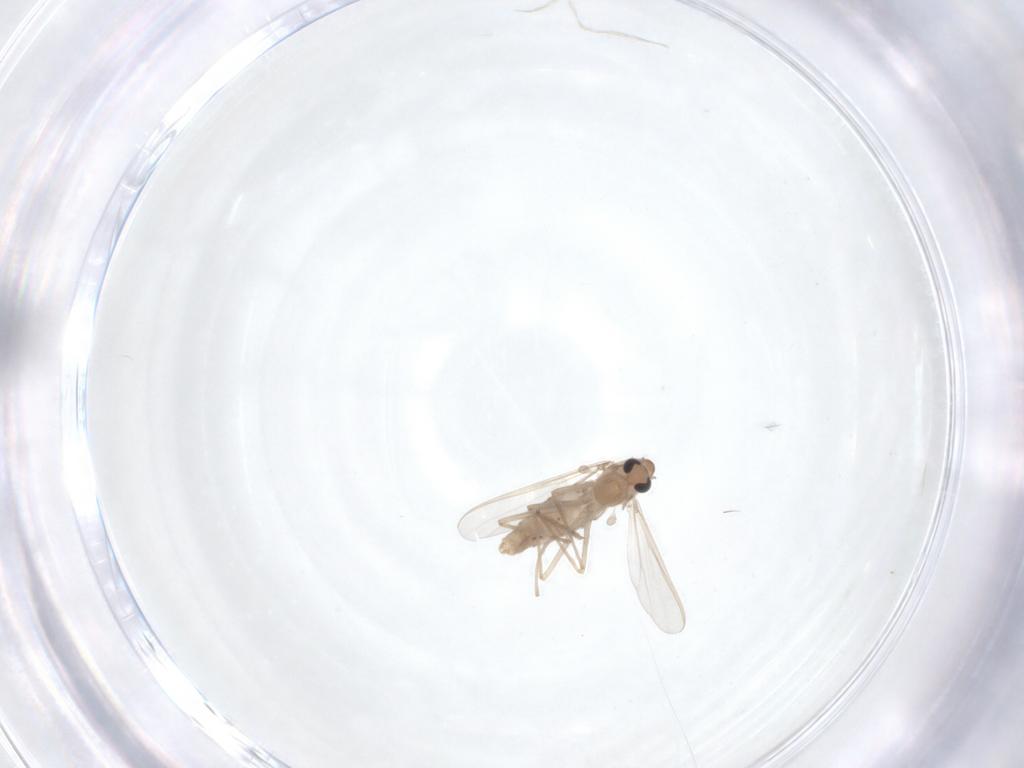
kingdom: Animalia
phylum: Arthropoda
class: Insecta
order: Diptera
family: Chironomidae
